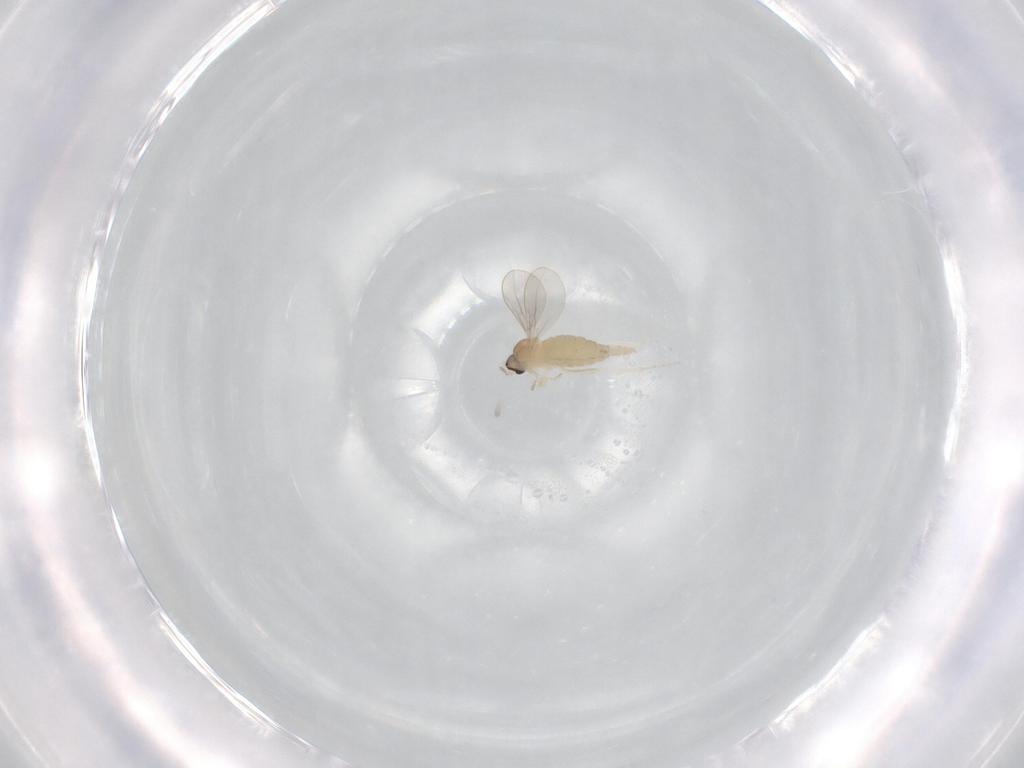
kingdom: Animalia
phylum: Arthropoda
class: Insecta
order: Diptera
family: Cecidomyiidae
